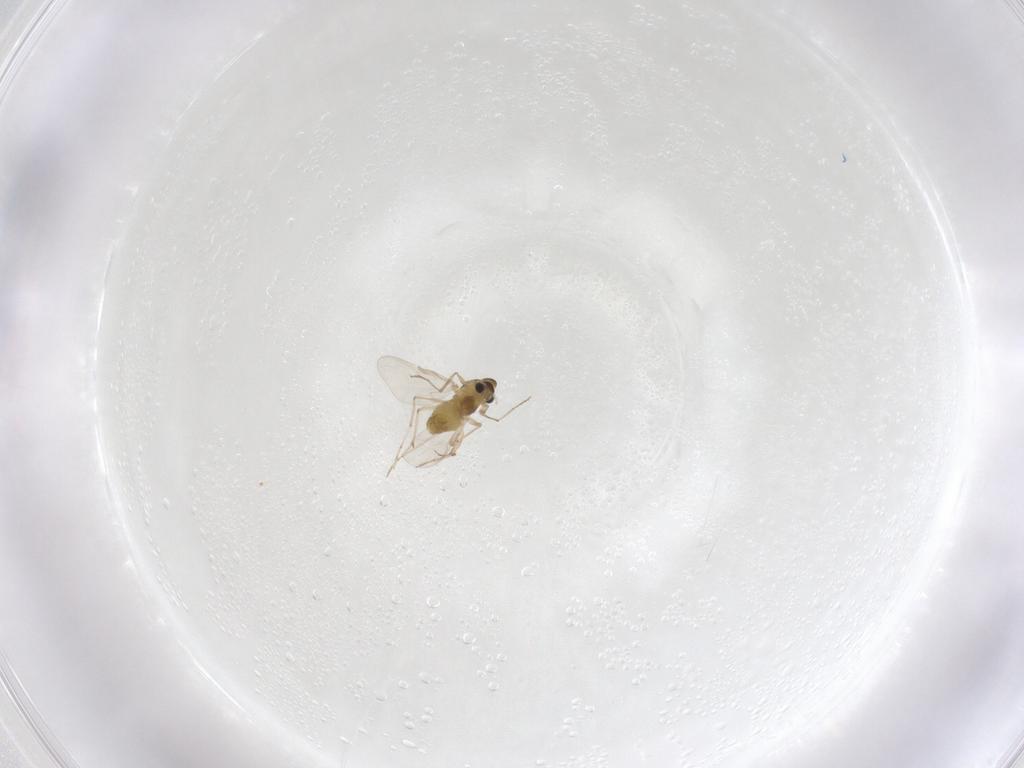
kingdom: Animalia
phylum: Arthropoda
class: Insecta
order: Diptera
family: Chironomidae
